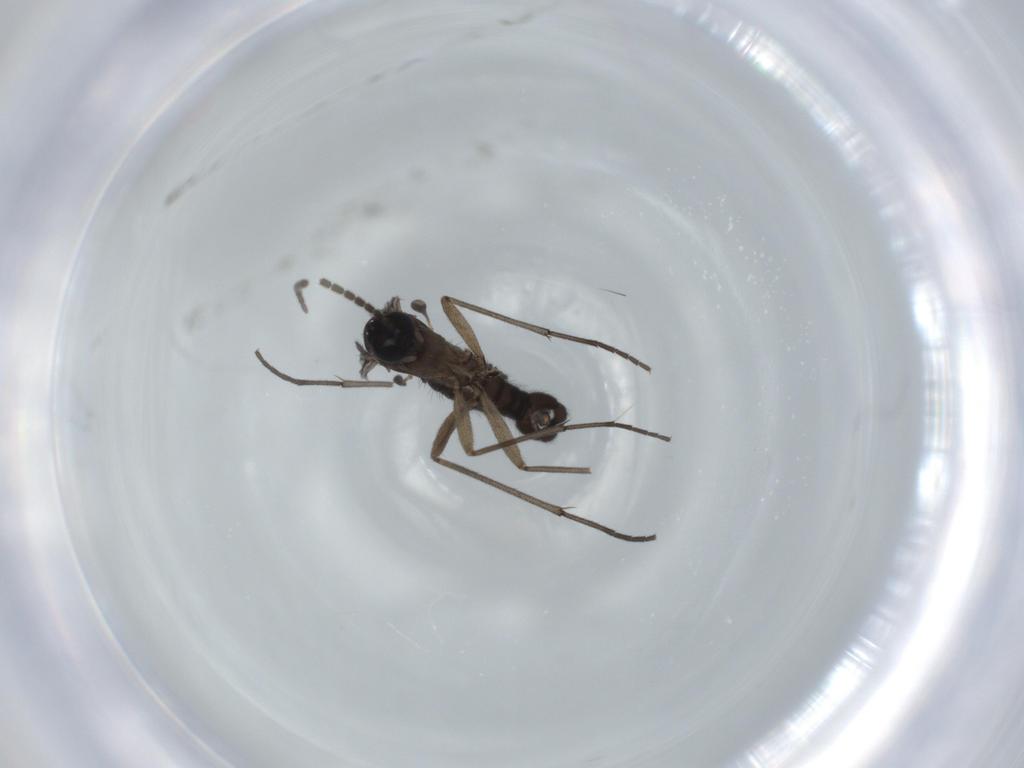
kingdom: Animalia
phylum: Arthropoda
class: Insecta
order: Diptera
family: Sciaridae
